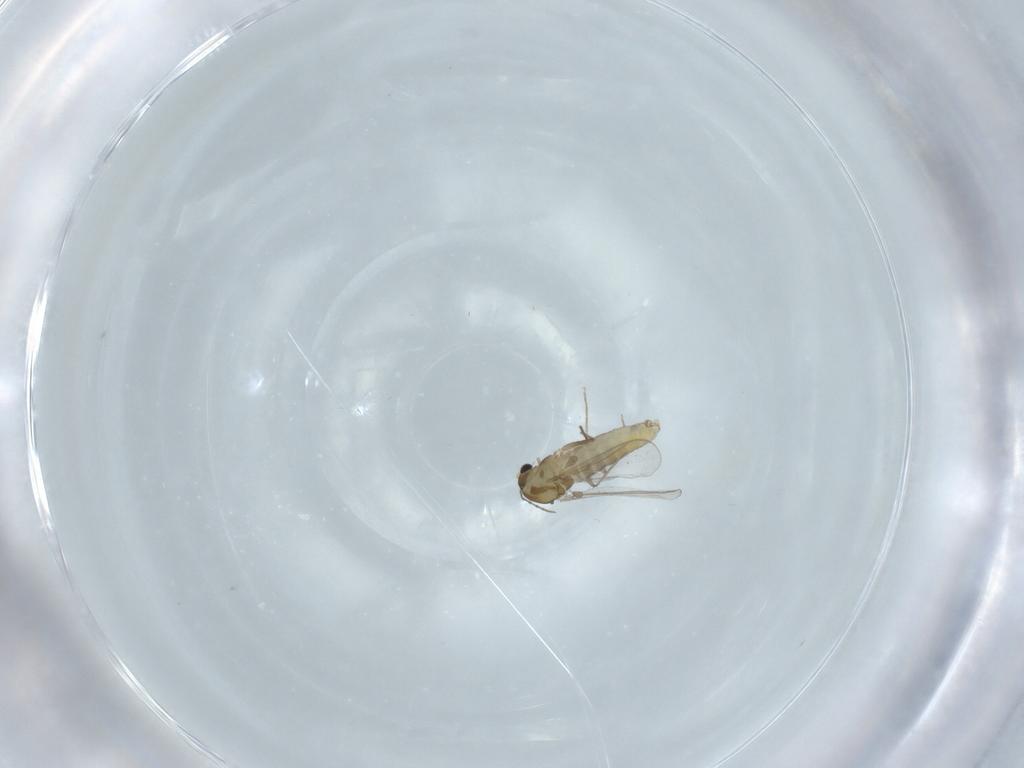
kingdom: Animalia
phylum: Arthropoda
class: Insecta
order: Diptera
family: Chironomidae
